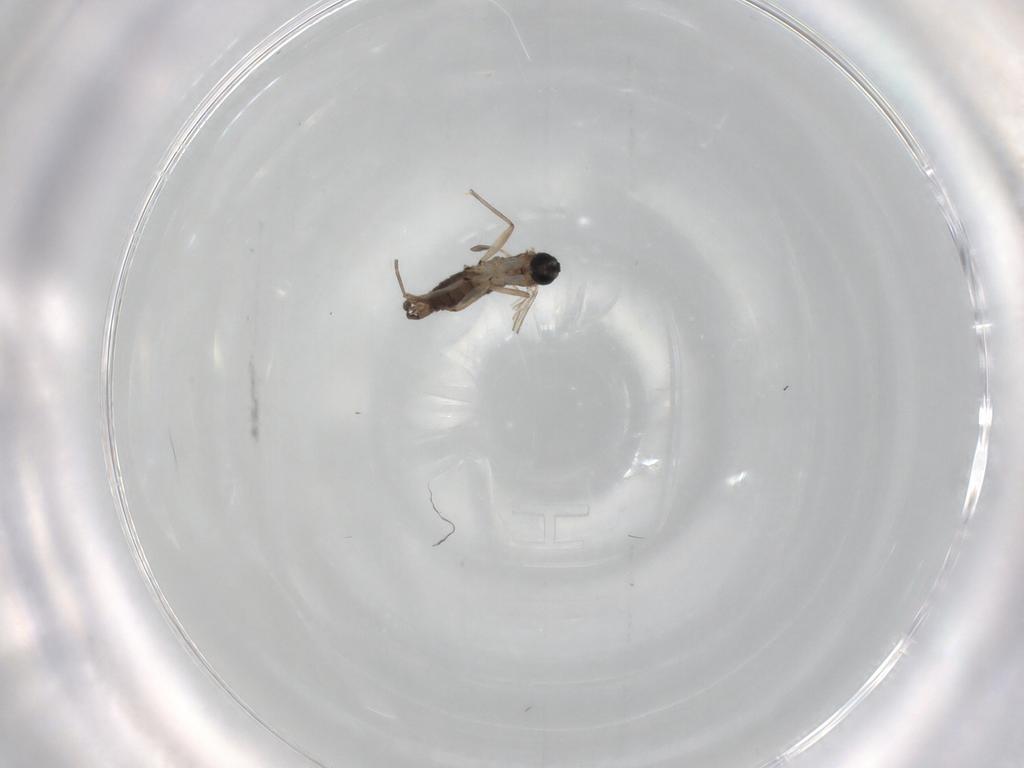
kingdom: Animalia
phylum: Arthropoda
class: Insecta
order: Diptera
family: Sciaridae
